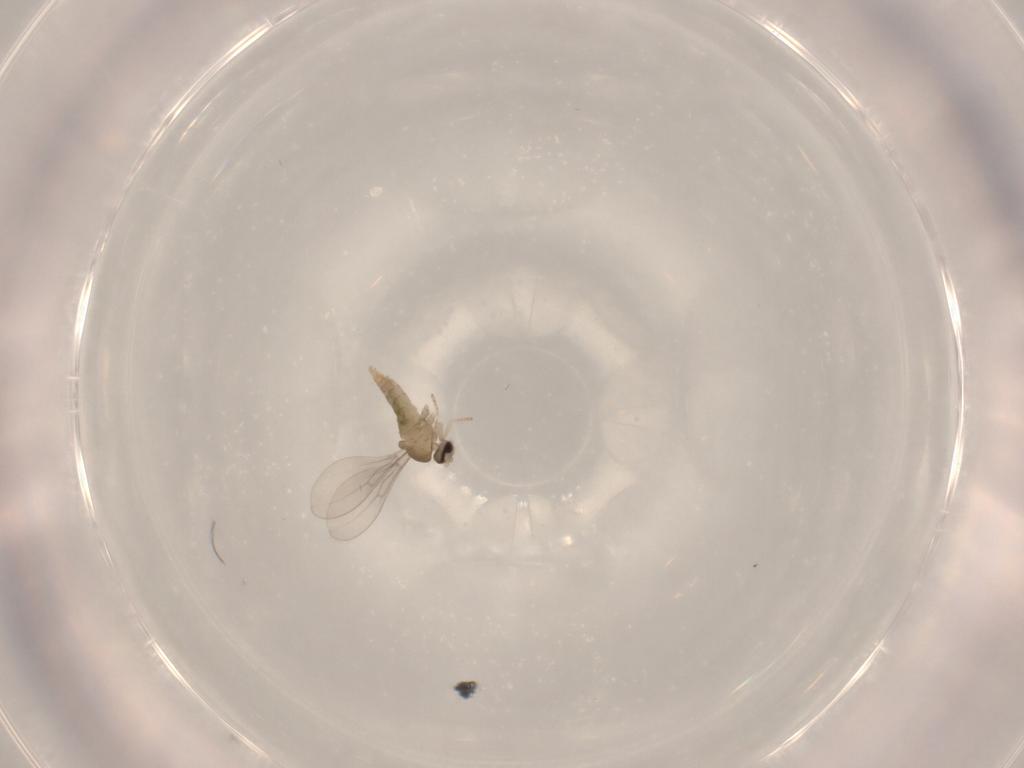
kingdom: Animalia
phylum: Arthropoda
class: Insecta
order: Diptera
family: Cecidomyiidae
